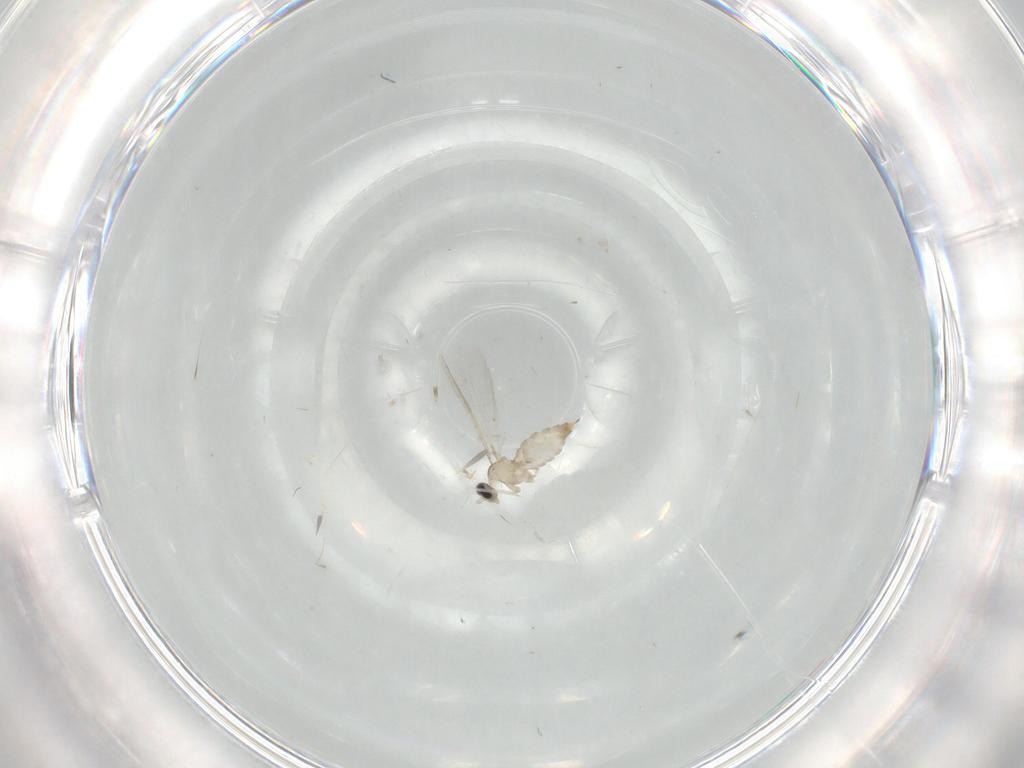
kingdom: Animalia
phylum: Arthropoda
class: Insecta
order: Diptera
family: Cecidomyiidae
